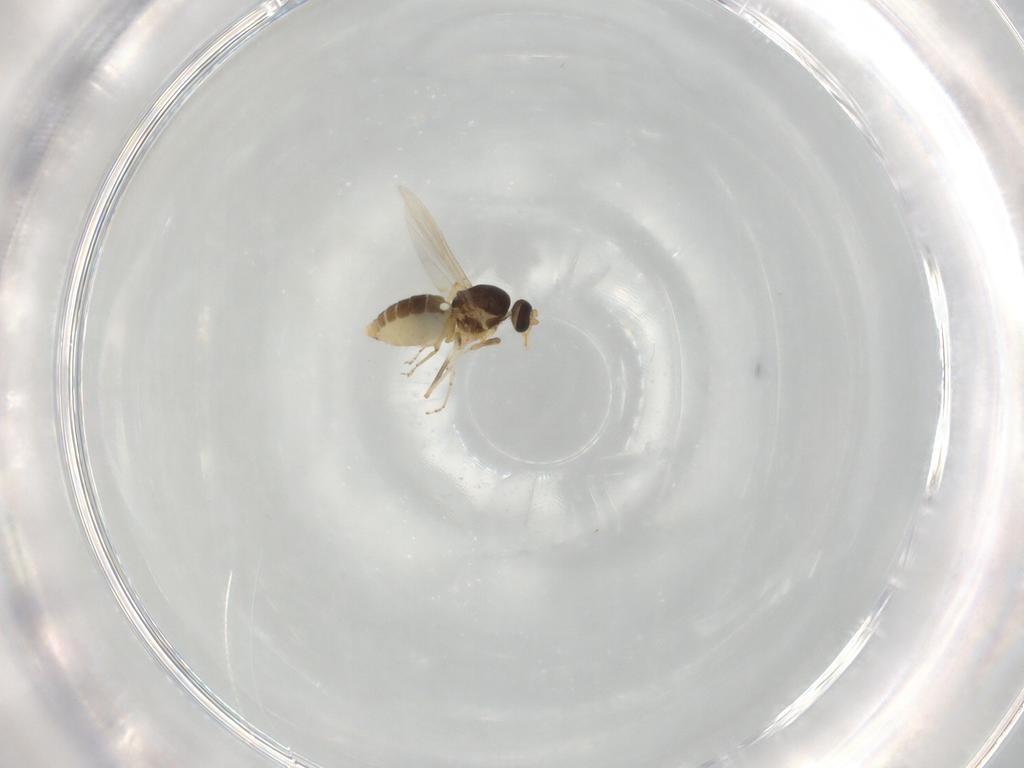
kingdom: Animalia
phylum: Arthropoda
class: Insecta
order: Diptera
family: Ceratopogonidae
